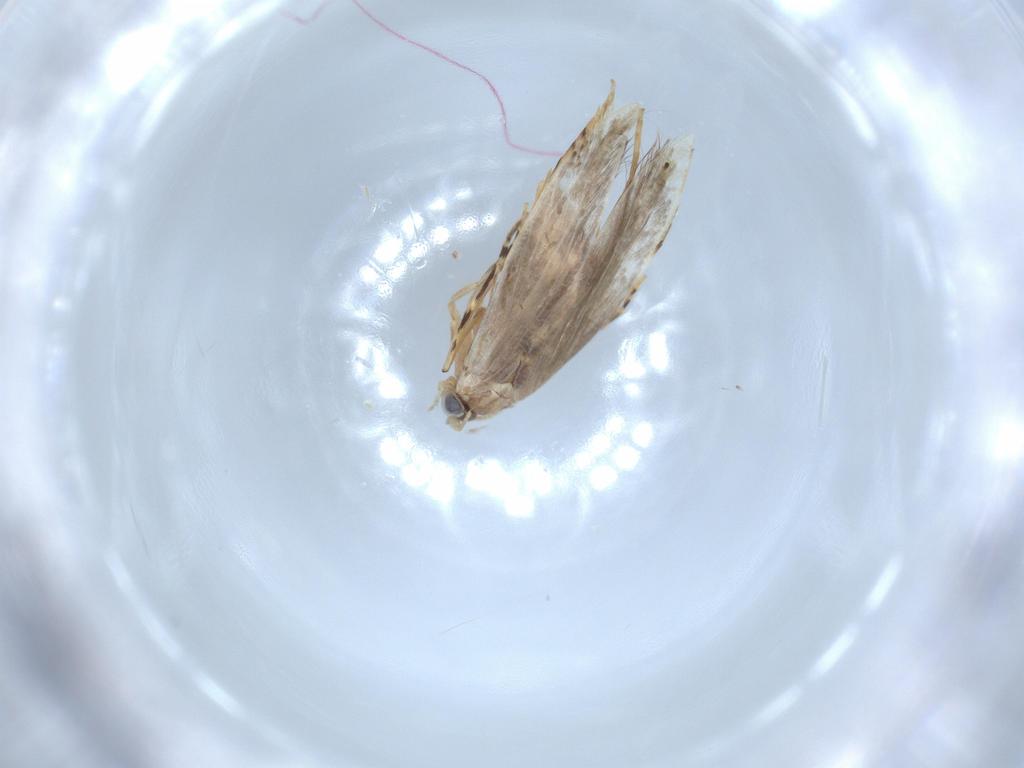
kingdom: Animalia
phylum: Arthropoda
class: Insecta
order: Lepidoptera
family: Tineidae
